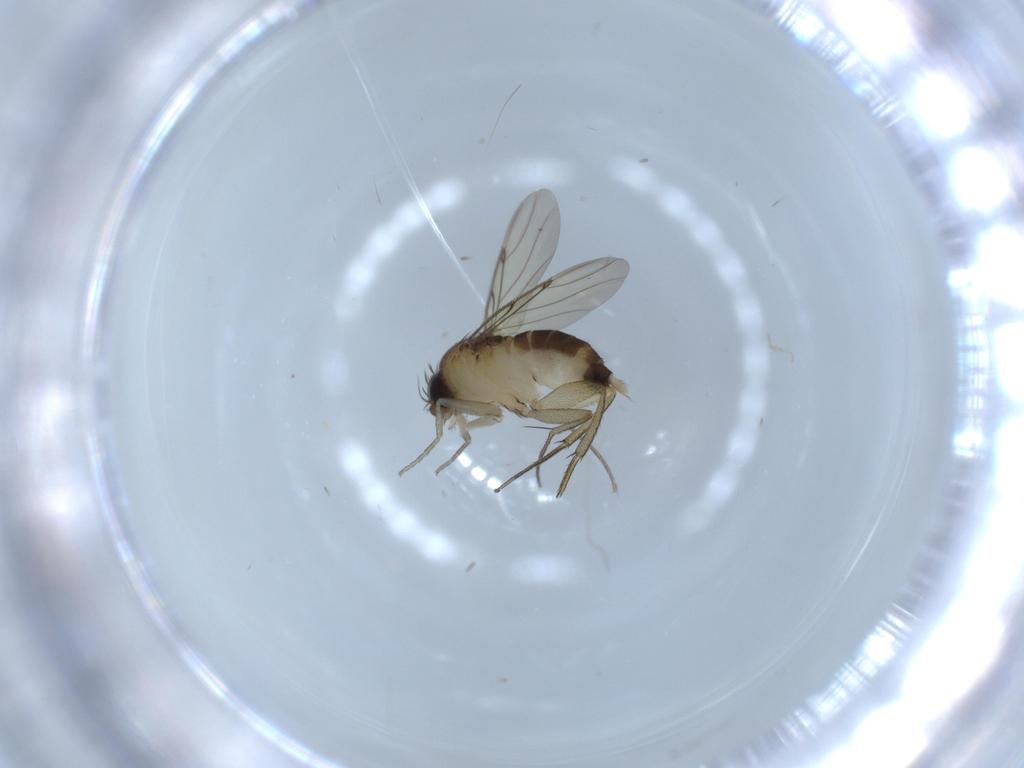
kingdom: Animalia
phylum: Arthropoda
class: Insecta
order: Diptera
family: Phoridae
